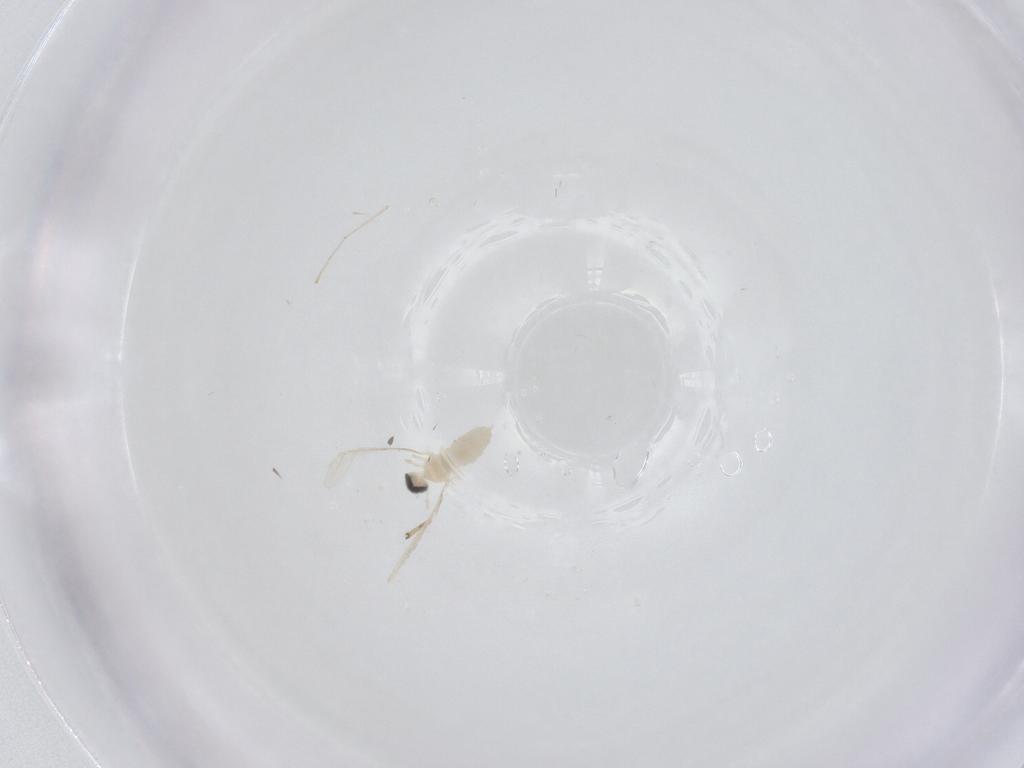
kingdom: Animalia
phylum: Arthropoda
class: Insecta
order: Diptera
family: Cecidomyiidae
